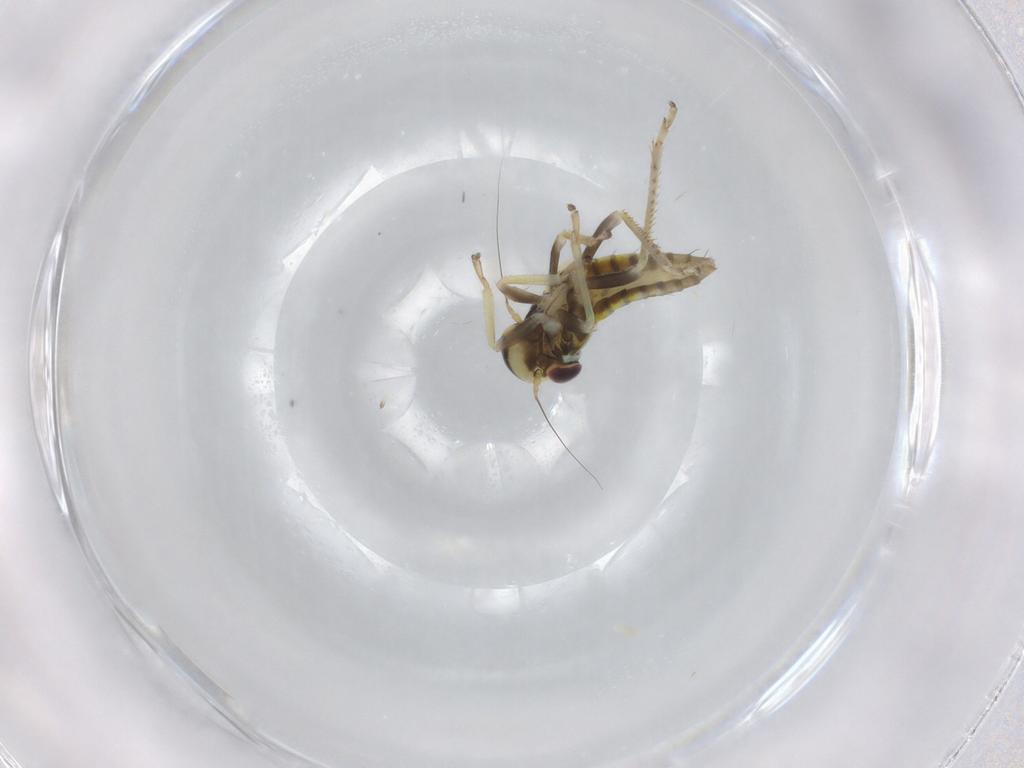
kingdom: Animalia
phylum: Arthropoda
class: Insecta
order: Hemiptera
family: Cicadellidae
